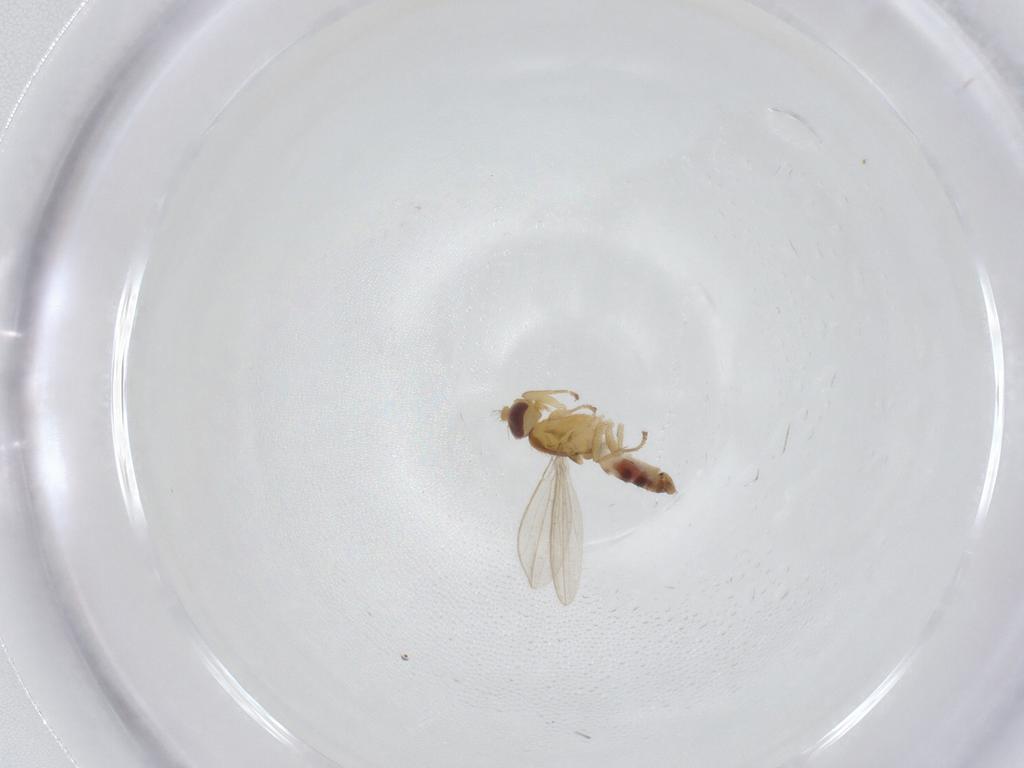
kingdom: Animalia
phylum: Arthropoda
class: Insecta
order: Diptera
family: Periscelididae
